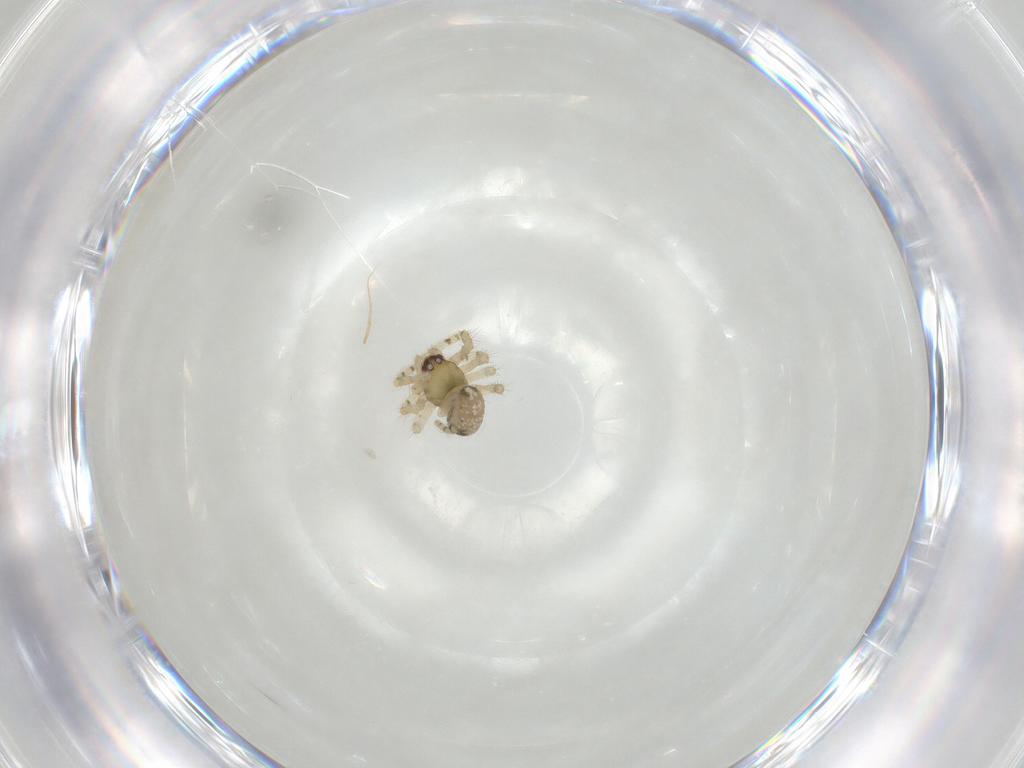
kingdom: Animalia
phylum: Arthropoda
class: Arachnida
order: Araneae
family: Theridiidae
